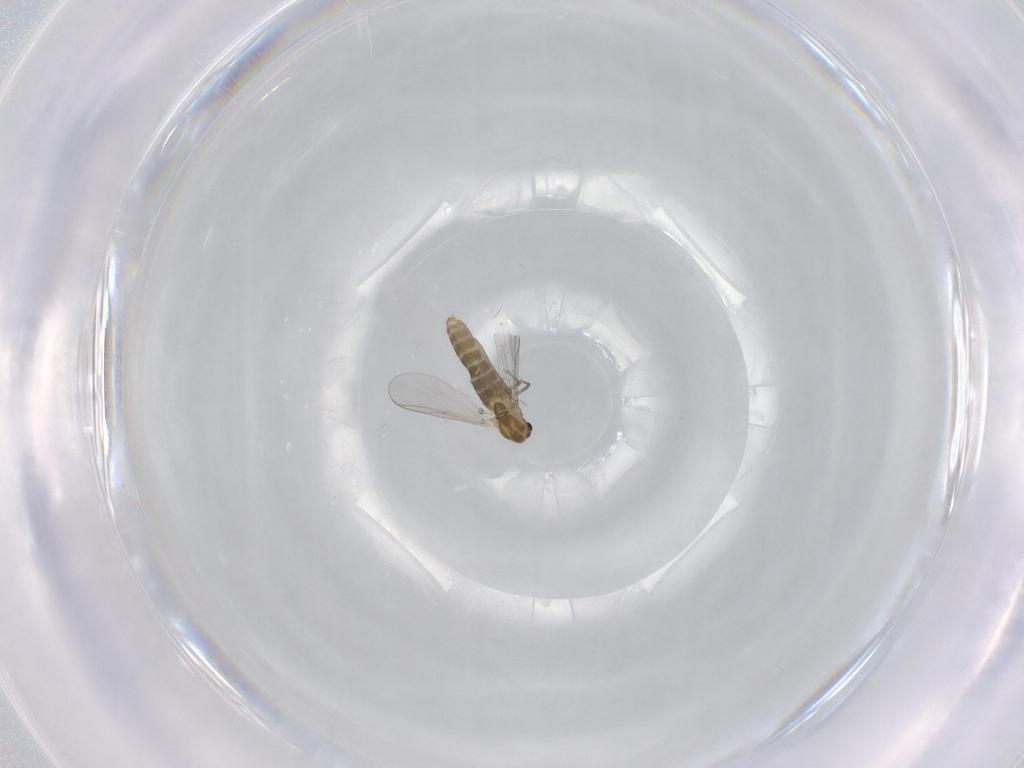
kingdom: Animalia
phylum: Arthropoda
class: Insecta
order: Diptera
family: Chironomidae
